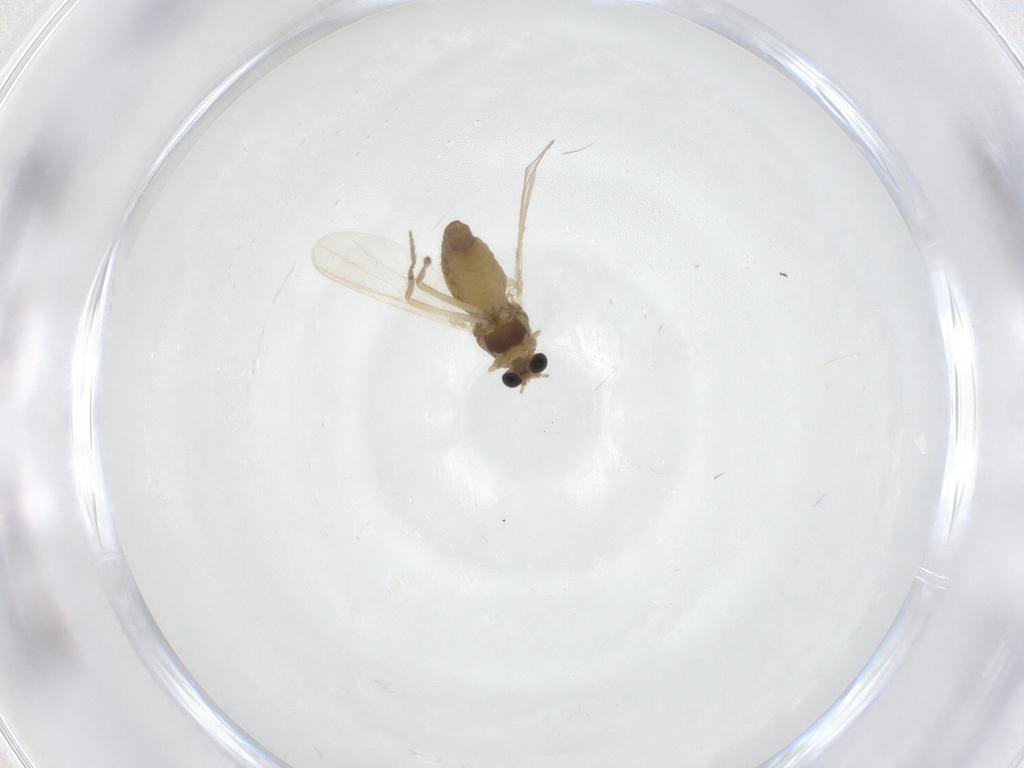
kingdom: Animalia
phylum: Arthropoda
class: Insecta
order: Diptera
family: Chironomidae
